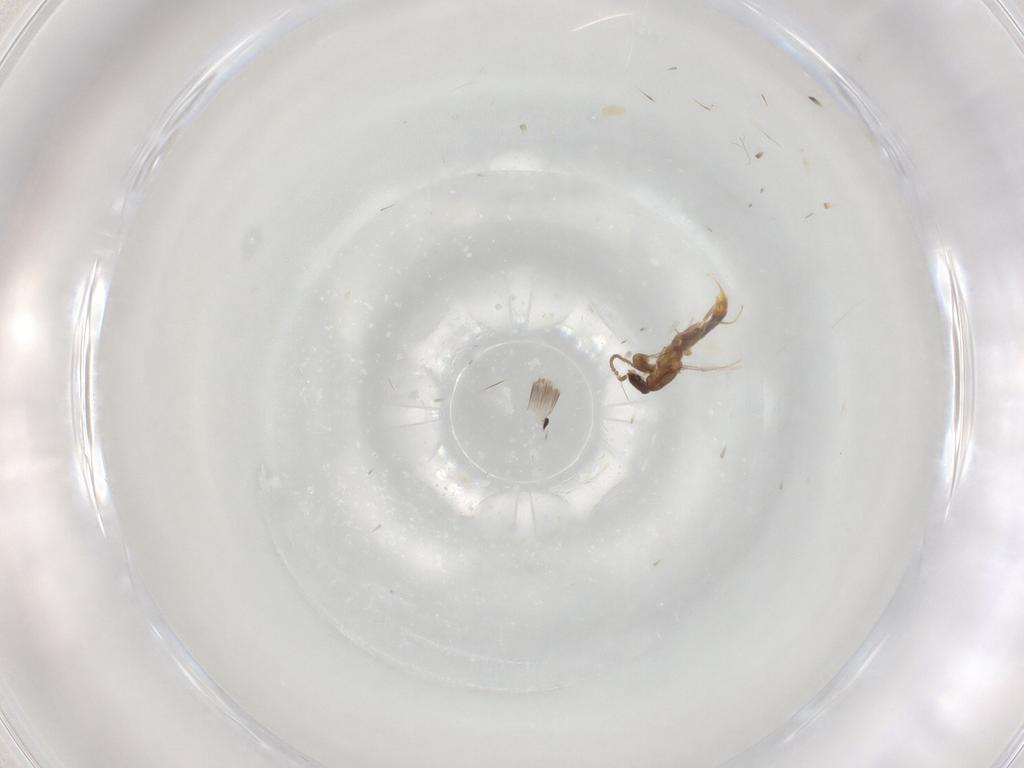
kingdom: Animalia
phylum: Arthropoda
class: Insecta
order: Hymenoptera
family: Formicidae
